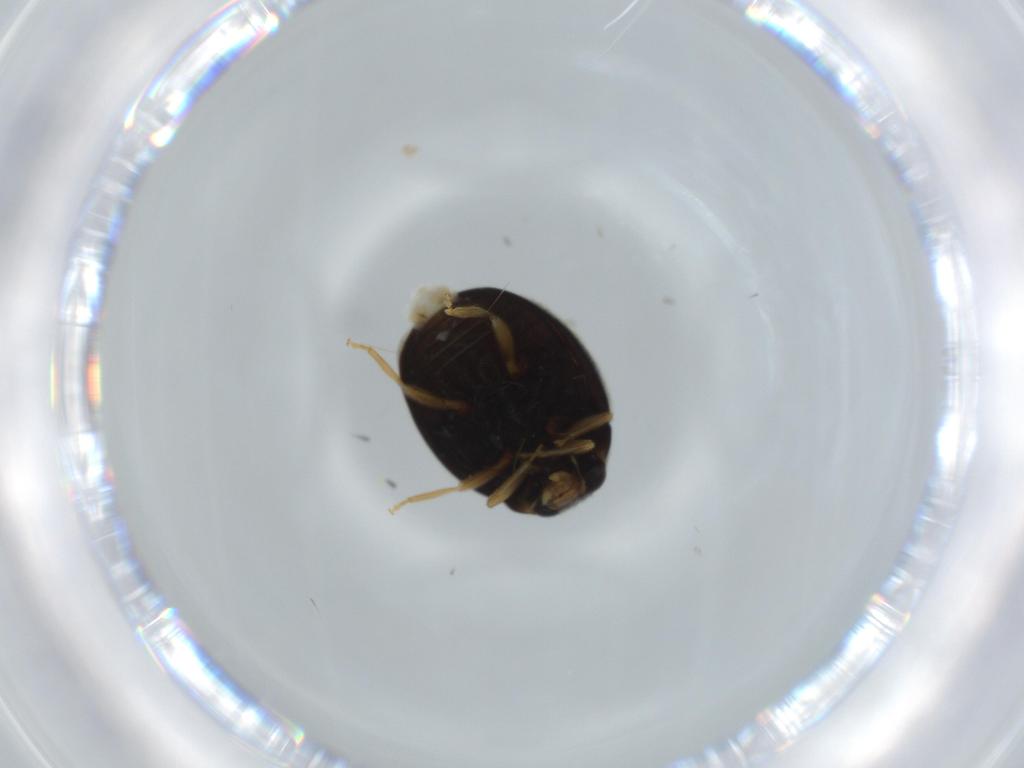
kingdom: Animalia
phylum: Arthropoda
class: Insecta
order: Coleoptera
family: Coccinellidae
